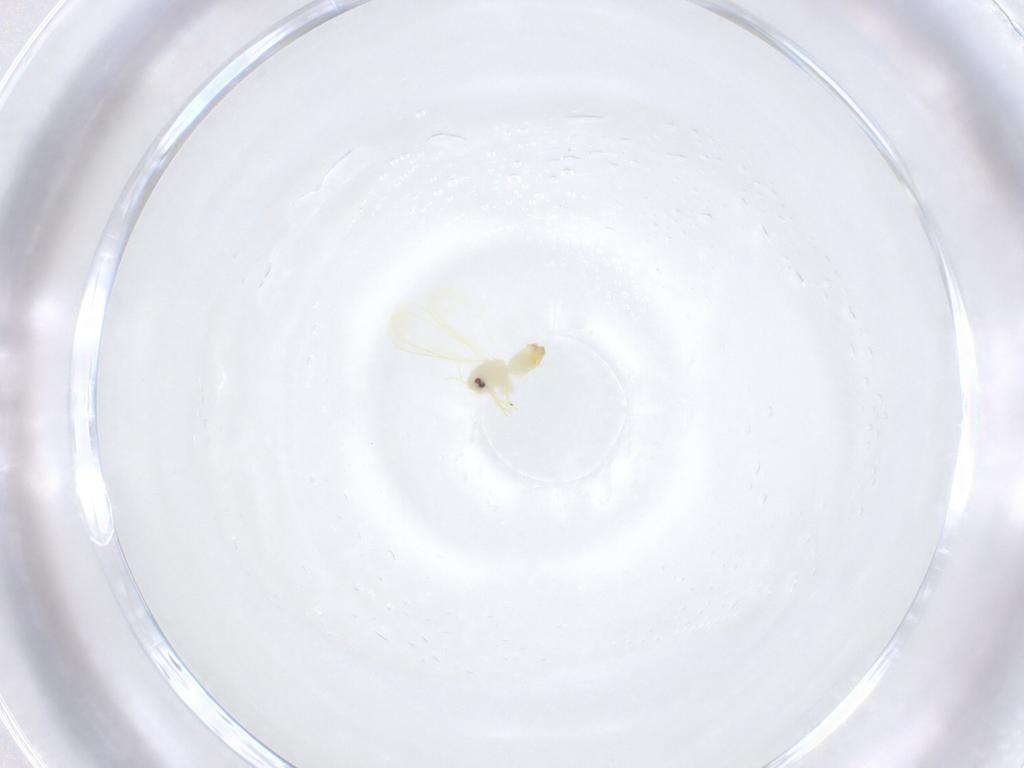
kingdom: Animalia
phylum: Arthropoda
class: Insecta
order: Hemiptera
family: Aleyrodidae
